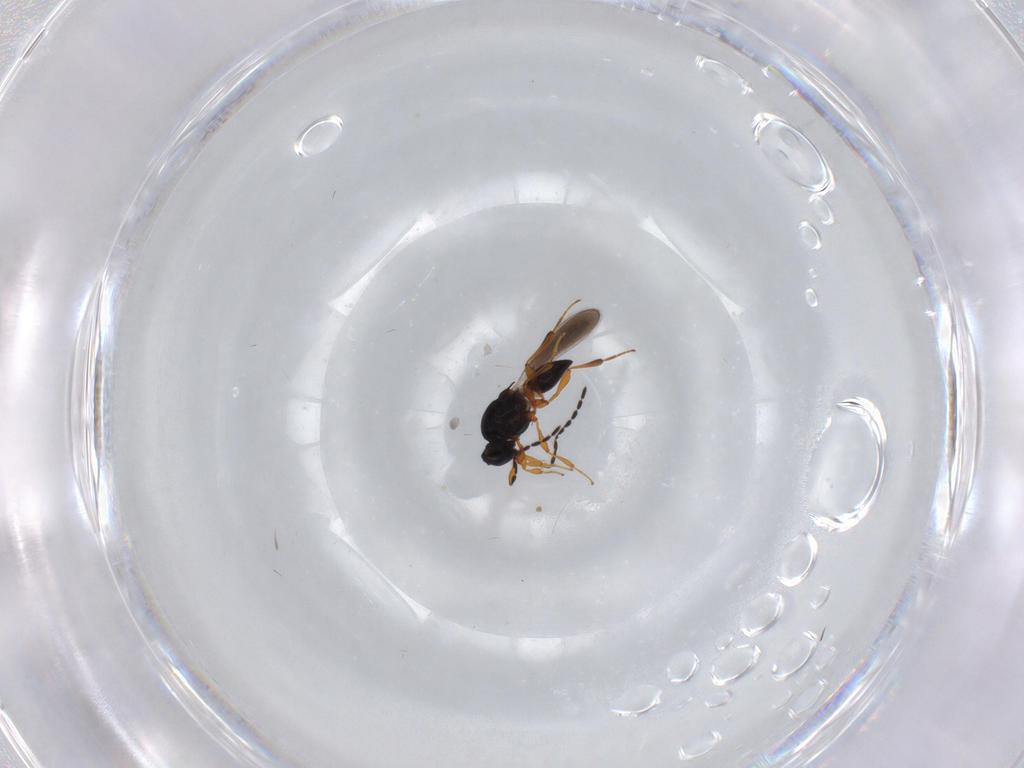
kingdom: Animalia
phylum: Arthropoda
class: Insecta
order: Hymenoptera
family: Platygastridae
